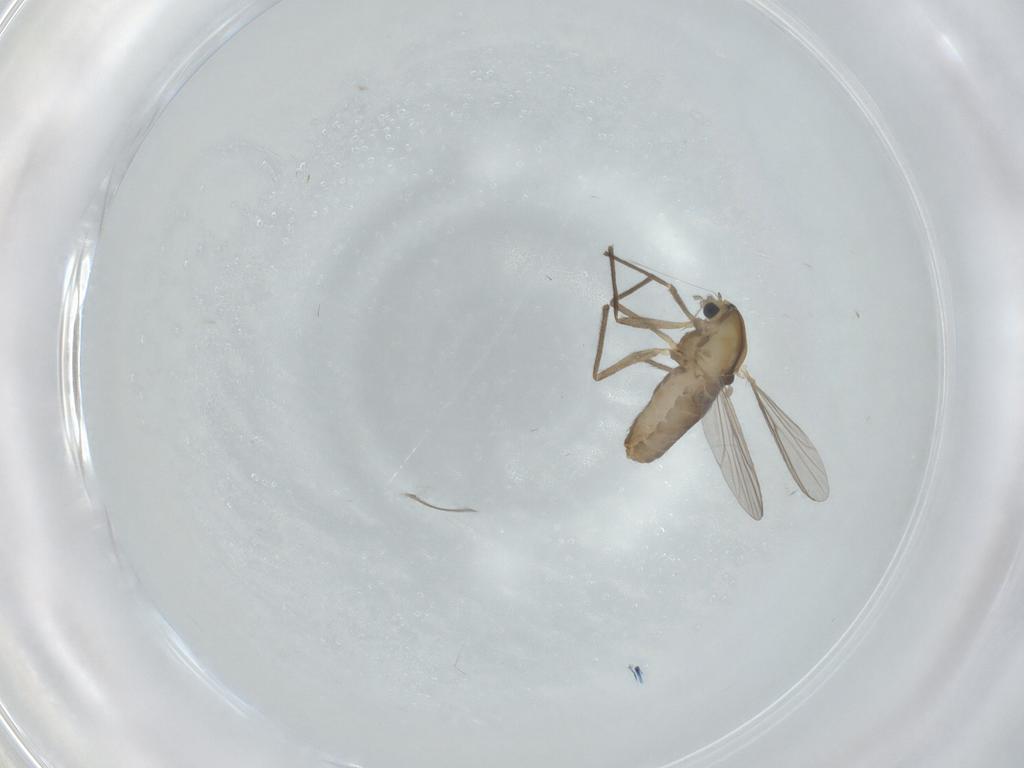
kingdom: Animalia
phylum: Arthropoda
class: Insecta
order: Diptera
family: Chironomidae
